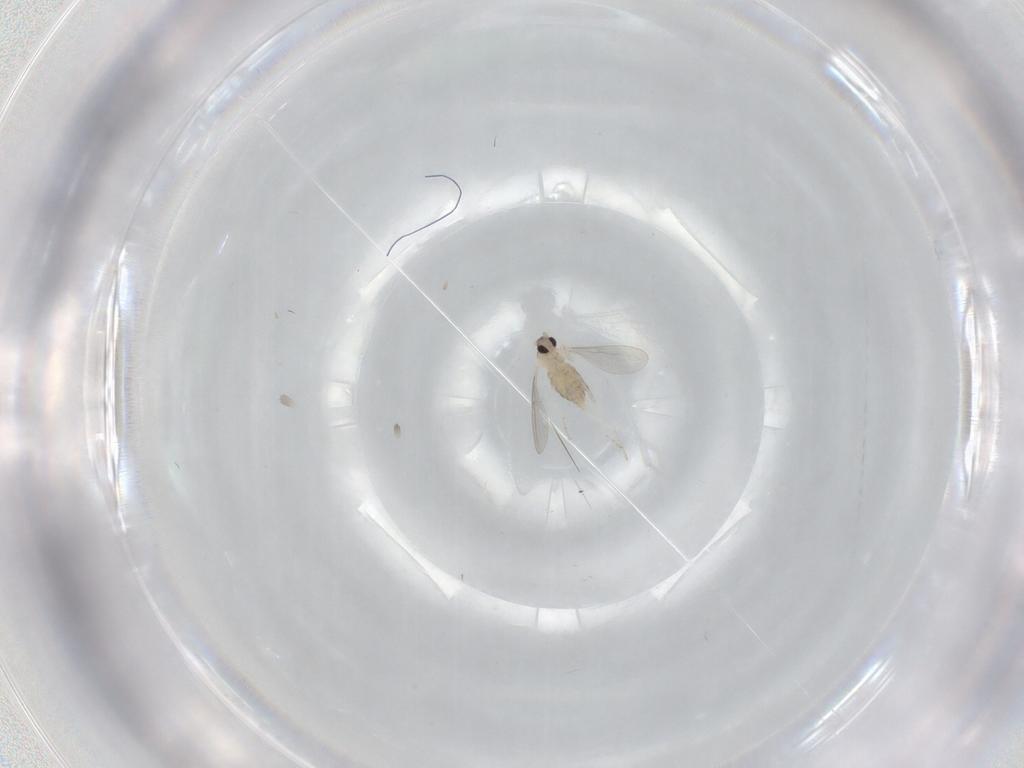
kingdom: Animalia
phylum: Arthropoda
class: Insecta
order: Diptera
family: Cecidomyiidae
